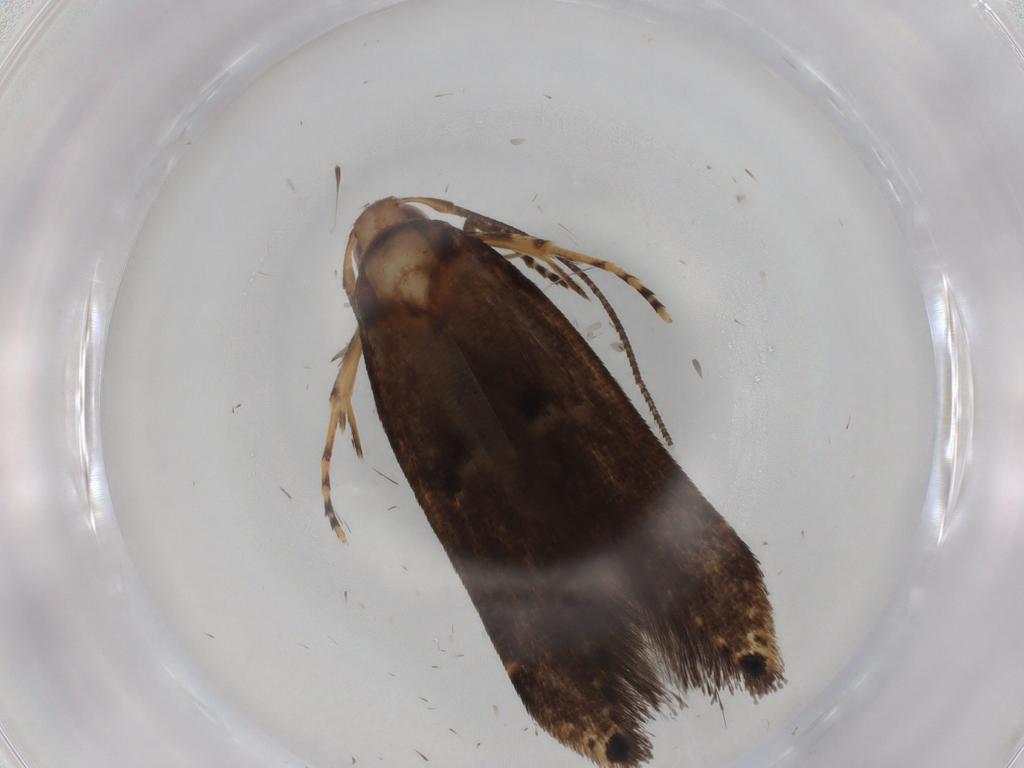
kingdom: Animalia
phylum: Arthropoda
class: Insecta
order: Lepidoptera
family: Cosmopterigidae
